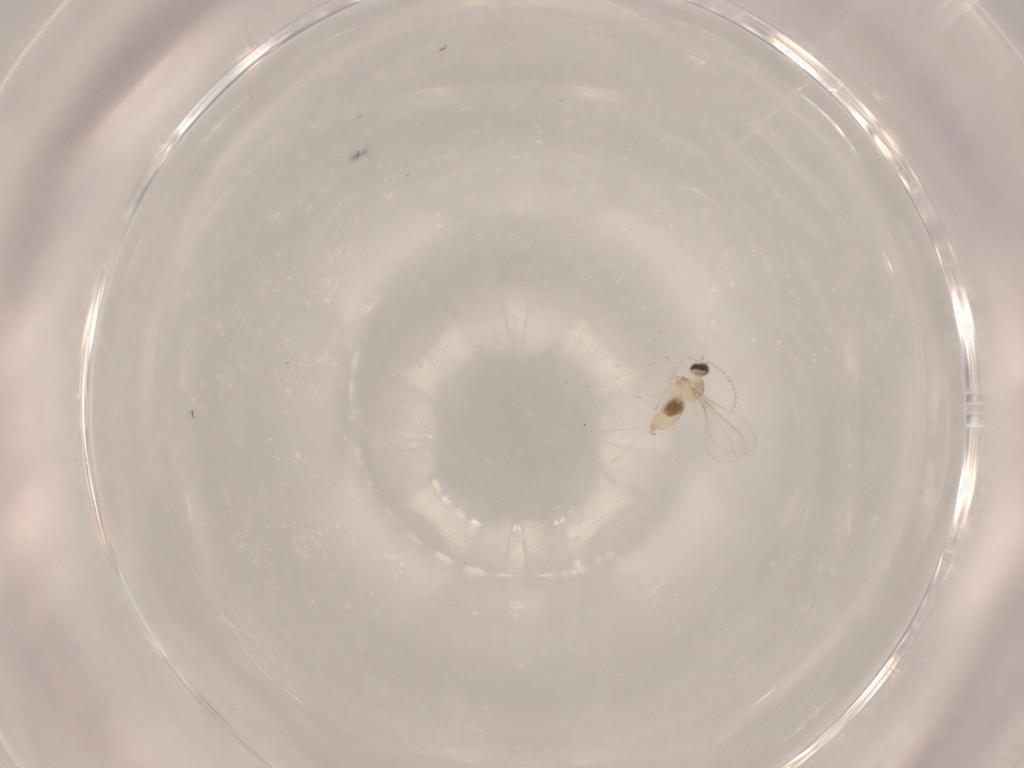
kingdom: Animalia
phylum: Arthropoda
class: Insecta
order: Diptera
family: Cecidomyiidae
